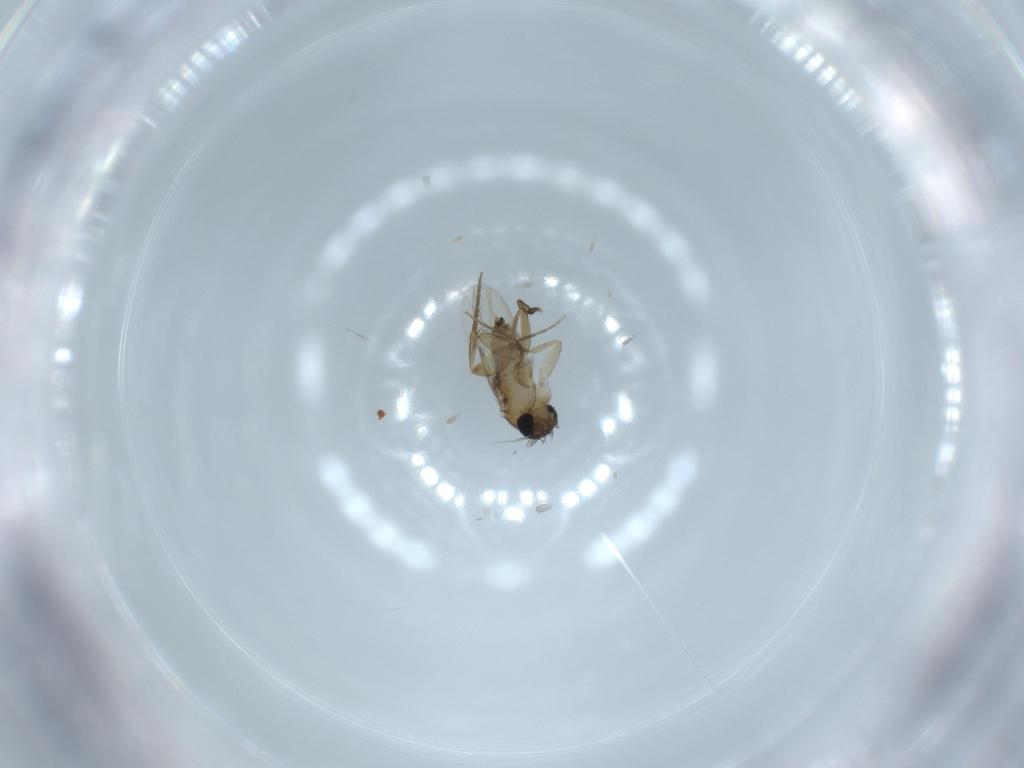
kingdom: Animalia
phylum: Arthropoda
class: Insecta
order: Diptera
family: Phoridae
